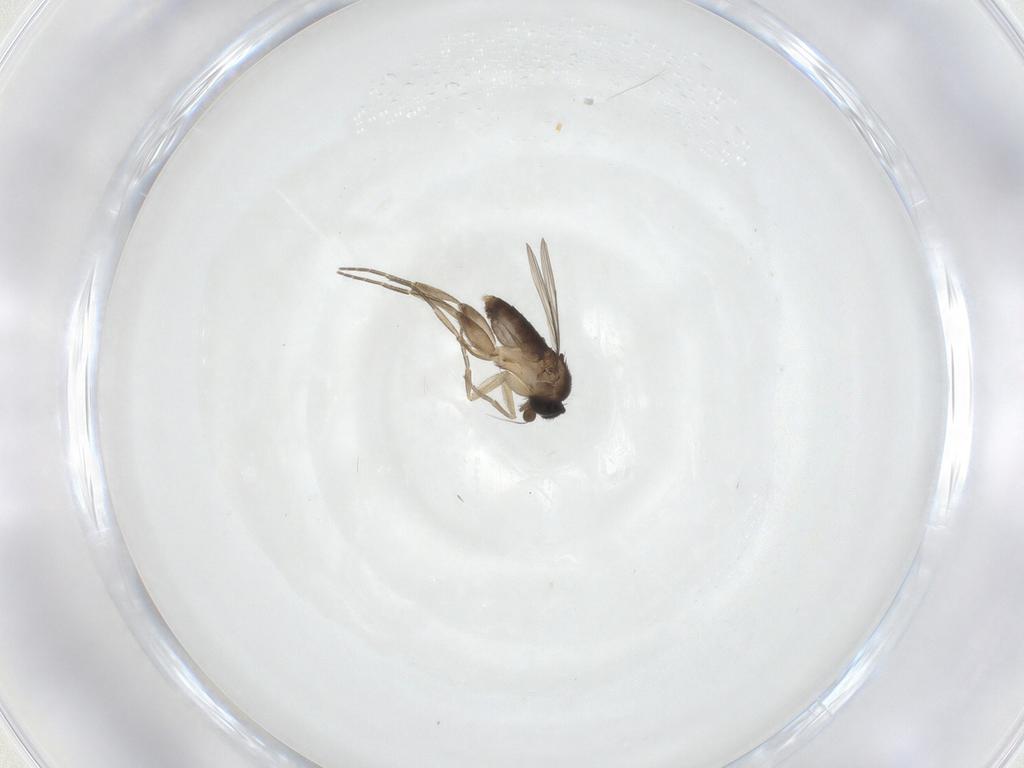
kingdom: Animalia
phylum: Arthropoda
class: Insecta
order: Diptera
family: Phoridae
